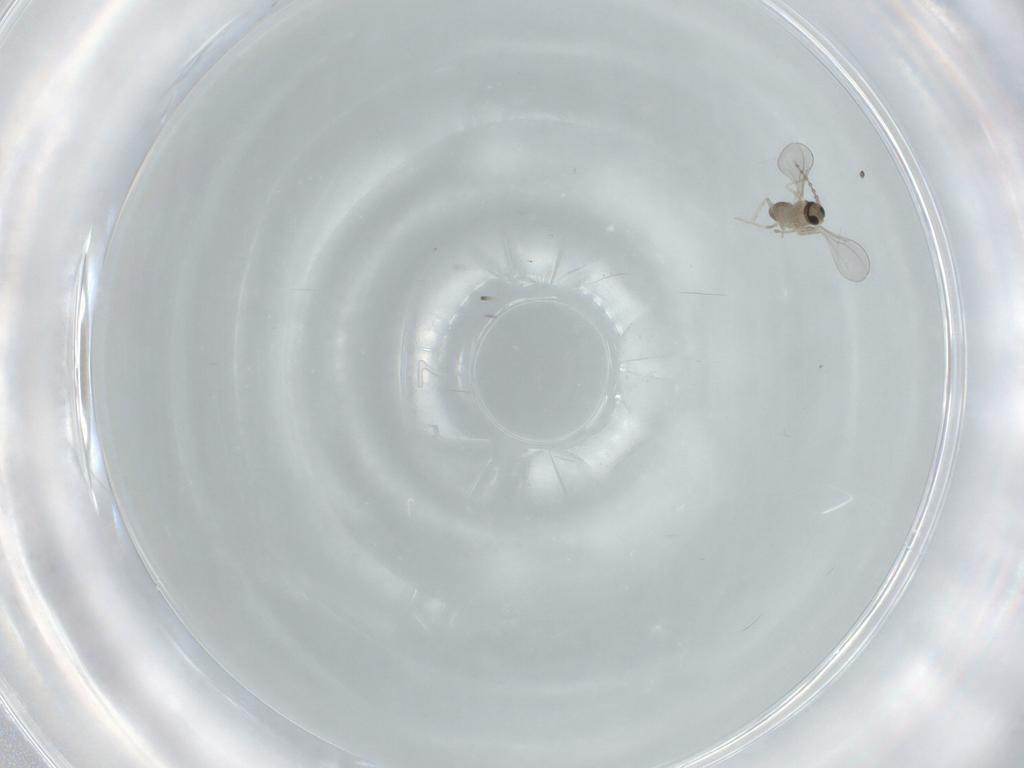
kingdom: Animalia
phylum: Arthropoda
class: Insecta
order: Diptera
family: Cecidomyiidae
